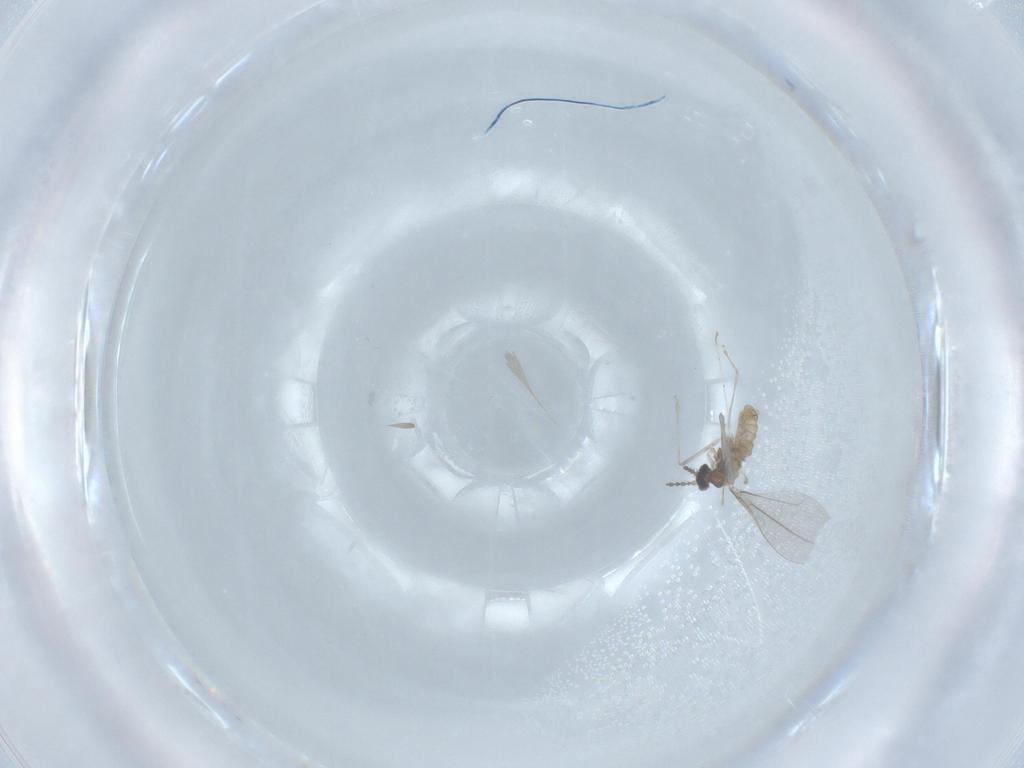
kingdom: Animalia
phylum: Arthropoda
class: Insecta
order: Diptera
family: Cecidomyiidae
